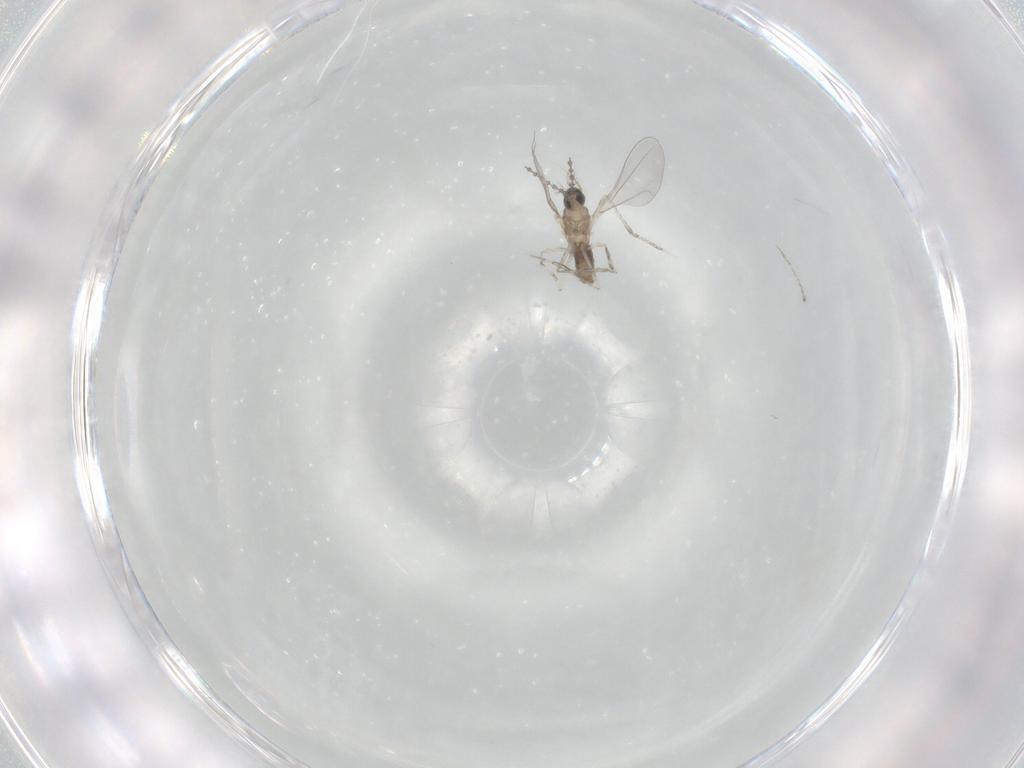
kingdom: Animalia
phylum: Arthropoda
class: Insecta
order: Diptera
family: Cecidomyiidae
